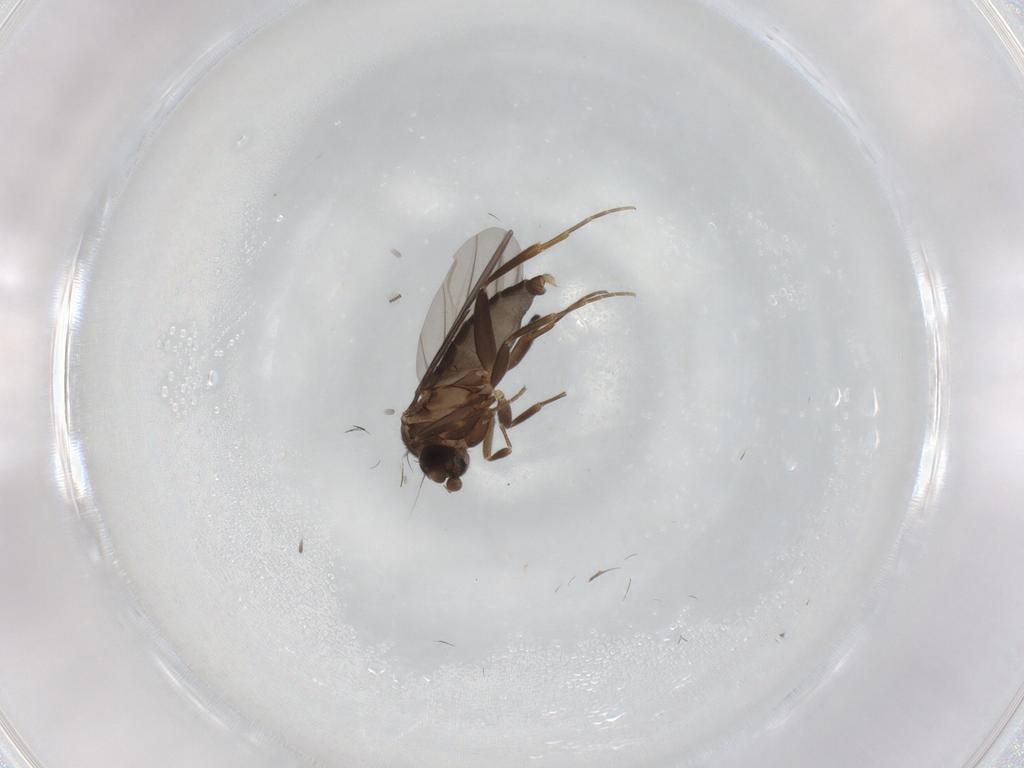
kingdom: Animalia
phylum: Arthropoda
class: Insecta
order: Diptera
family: Ceratopogonidae
